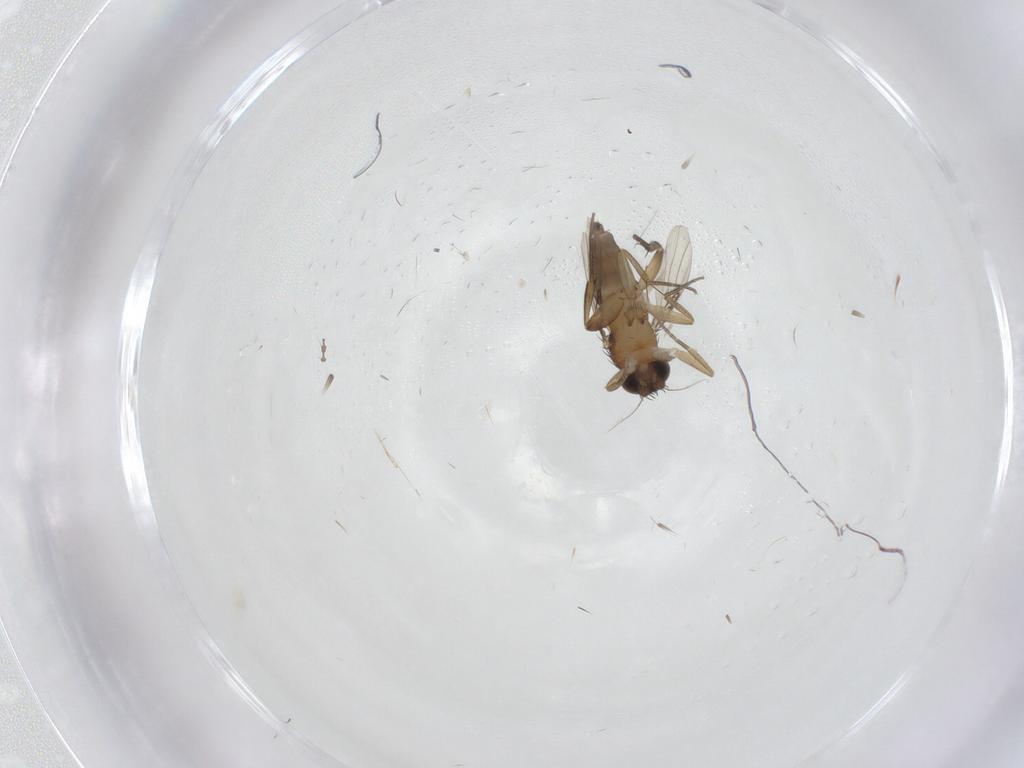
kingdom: Animalia
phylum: Arthropoda
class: Insecta
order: Diptera
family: Phoridae
